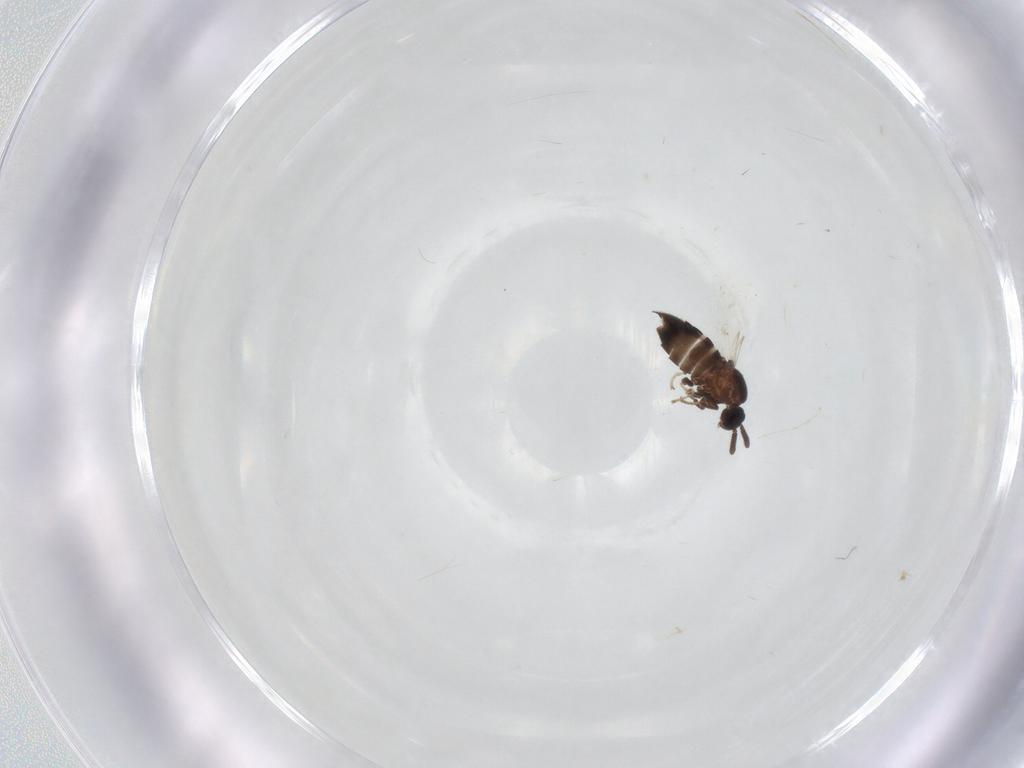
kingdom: Animalia
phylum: Arthropoda
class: Insecta
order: Diptera
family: Scatopsidae
